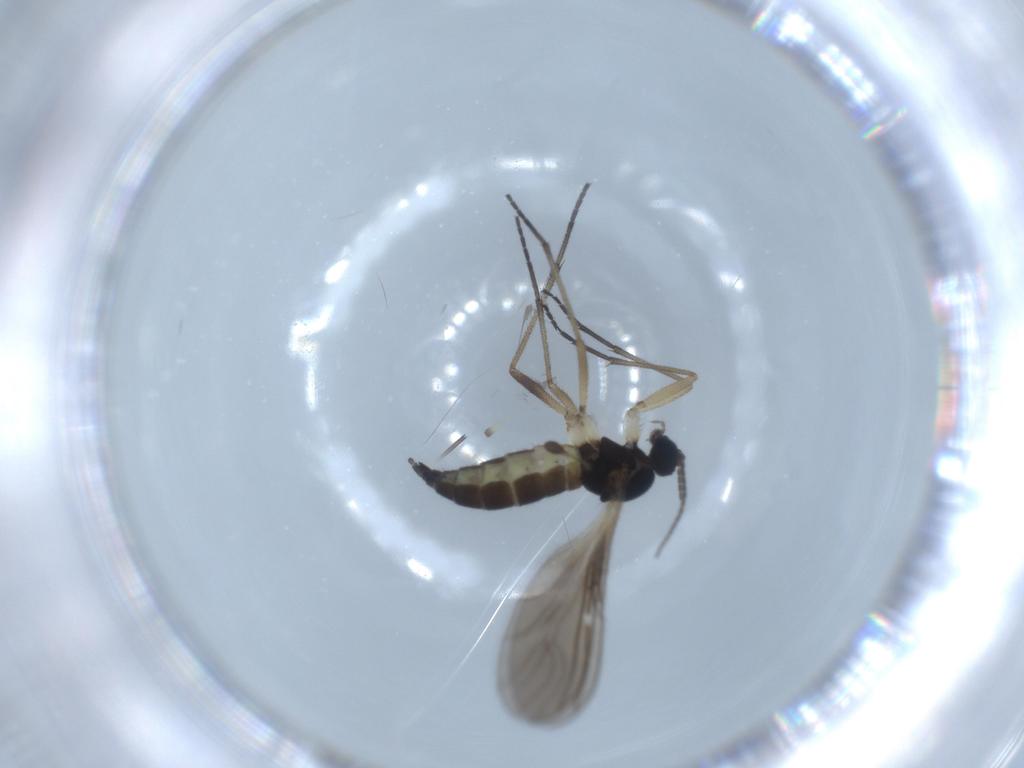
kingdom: Animalia
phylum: Arthropoda
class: Insecta
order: Diptera
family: Sciaridae
